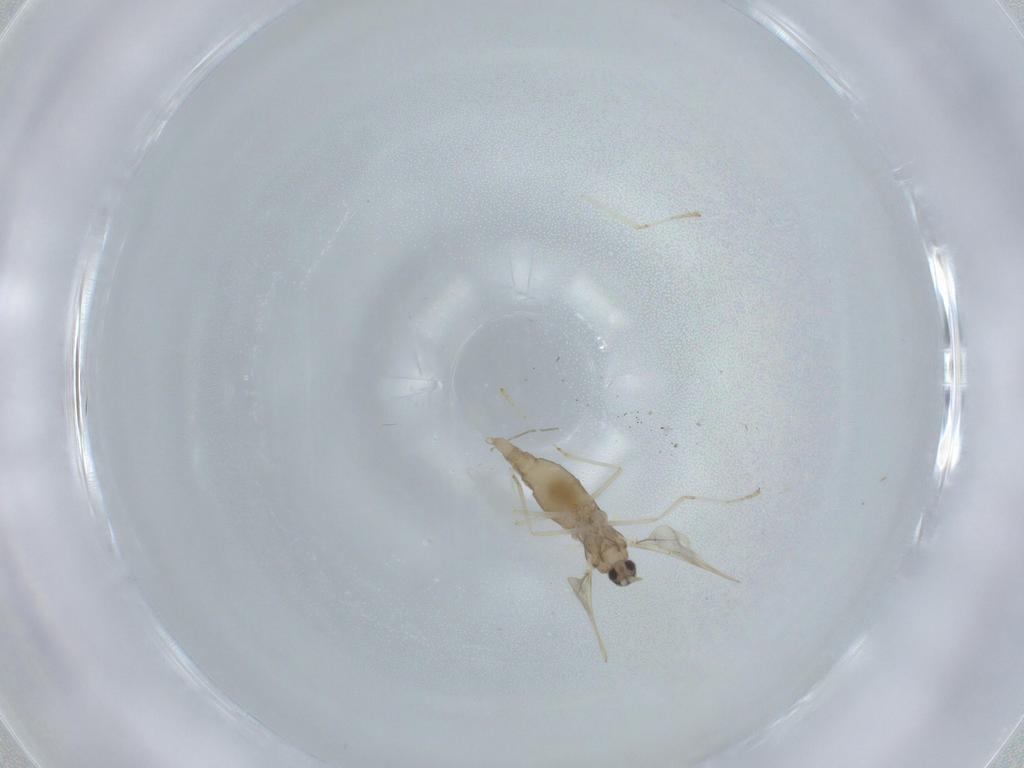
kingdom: Animalia
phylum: Arthropoda
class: Insecta
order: Diptera
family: Cecidomyiidae
